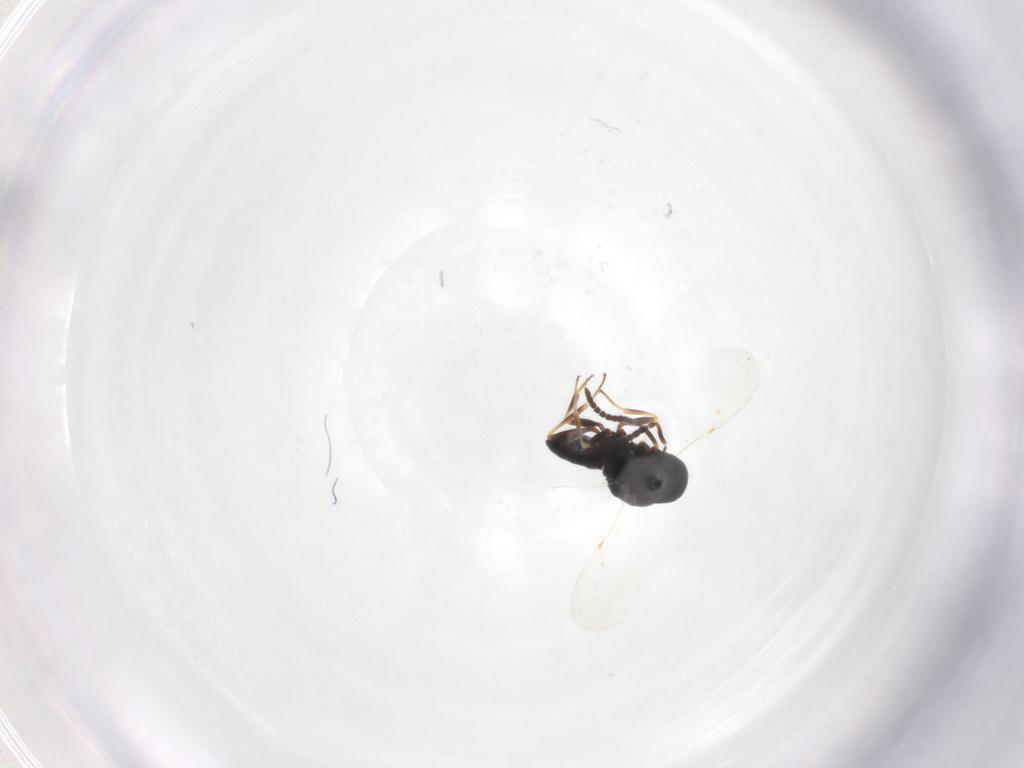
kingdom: Animalia
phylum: Arthropoda
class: Insecta
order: Hymenoptera
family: Scelionidae
